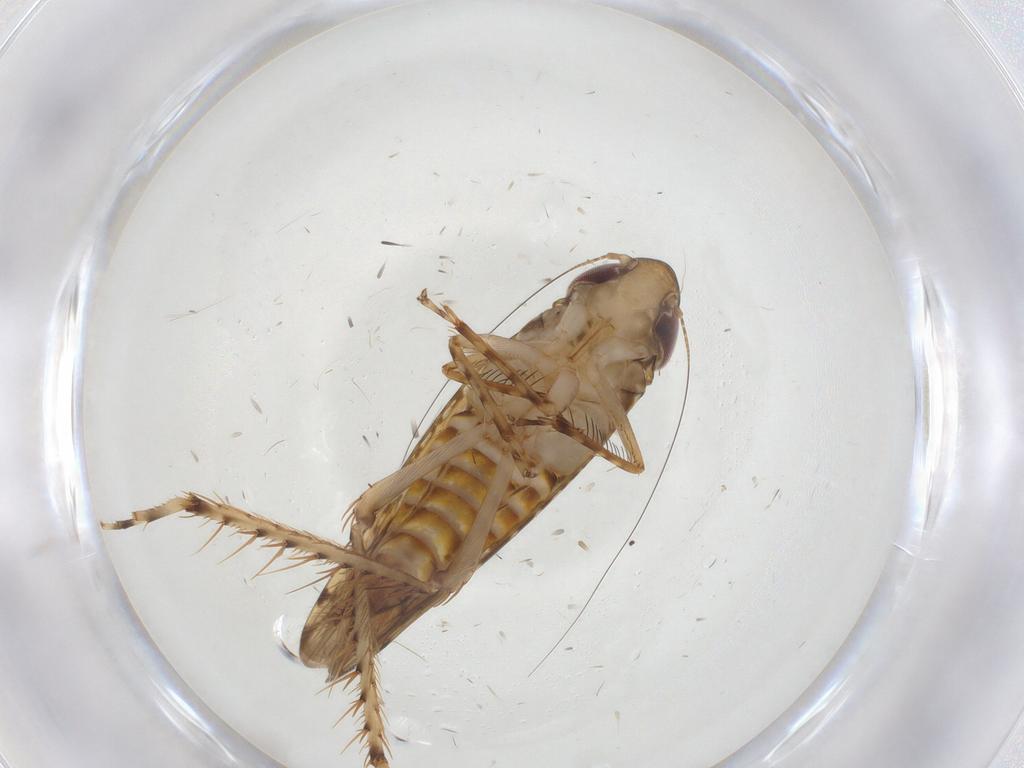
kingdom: Animalia
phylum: Arthropoda
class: Insecta
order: Hemiptera
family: Cicadellidae
